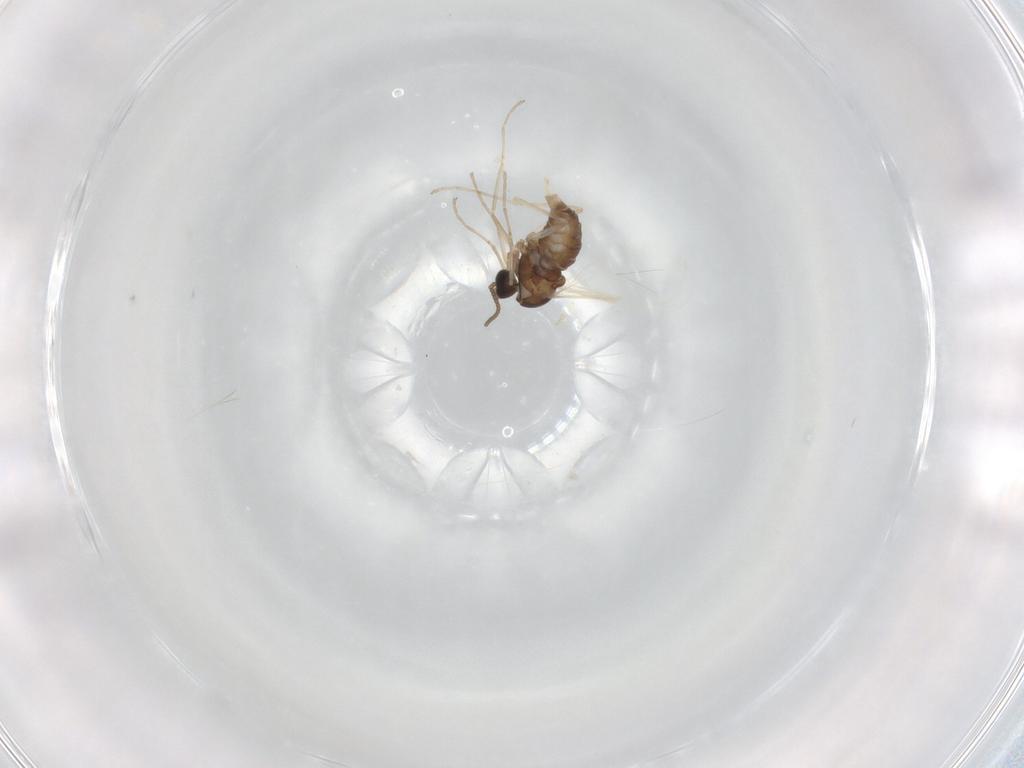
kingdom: Animalia
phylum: Arthropoda
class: Insecta
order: Diptera
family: Cecidomyiidae
